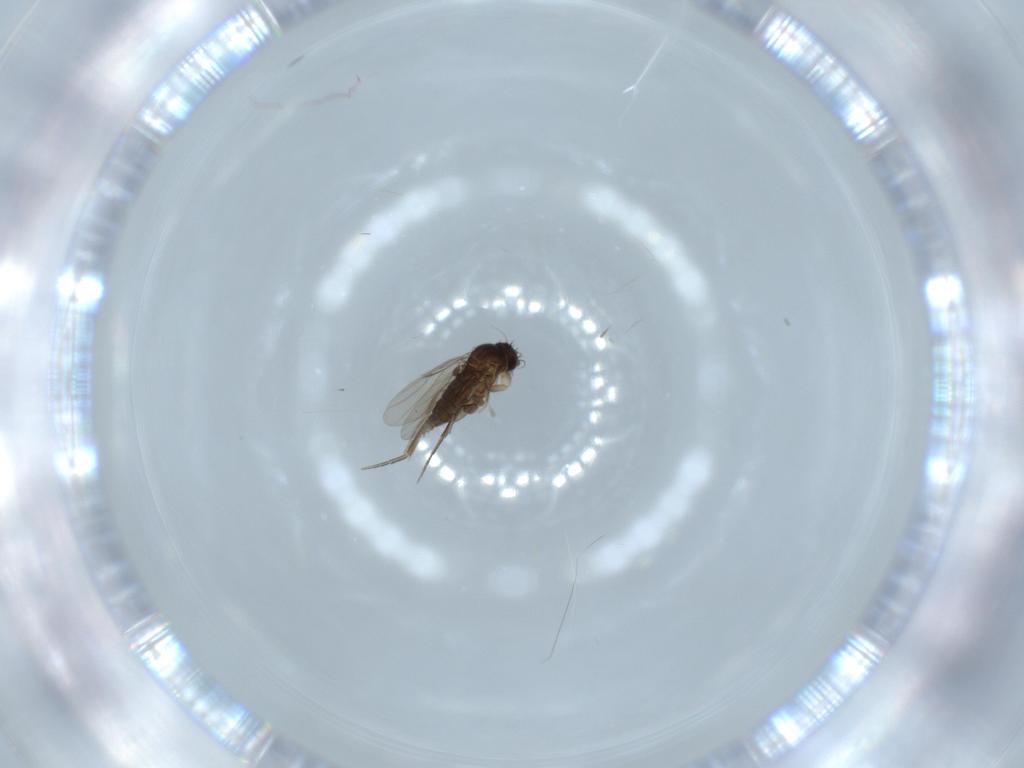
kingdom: Animalia
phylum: Arthropoda
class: Insecta
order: Diptera
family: Phoridae
